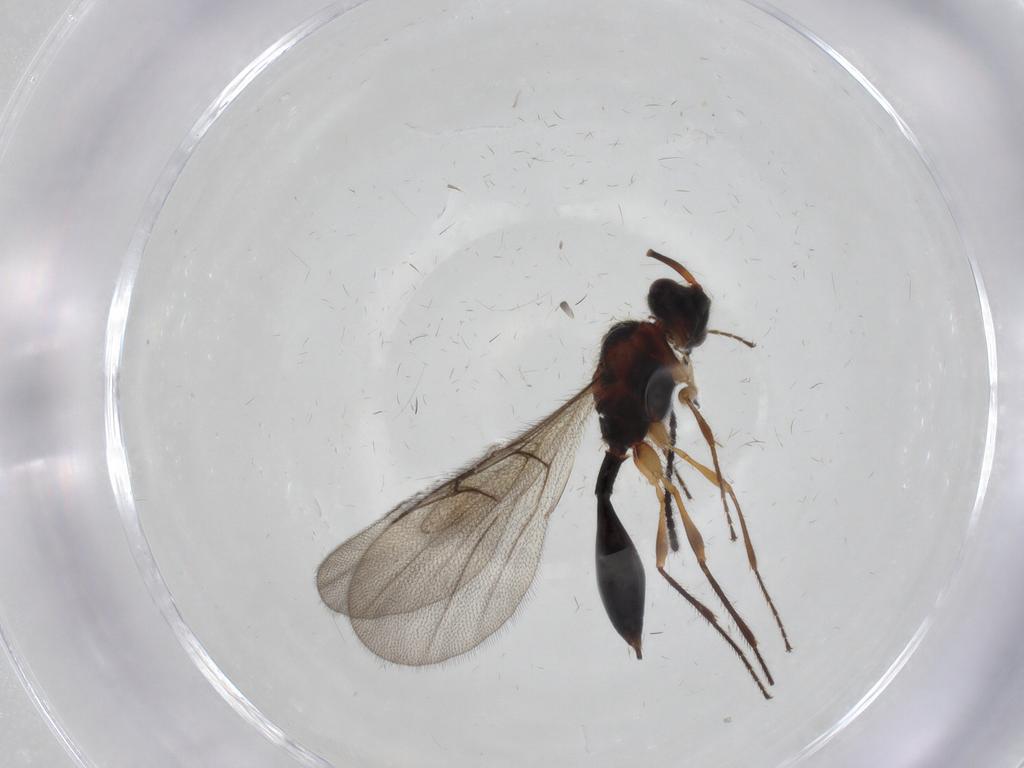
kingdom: Animalia
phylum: Arthropoda
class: Insecta
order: Hymenoptera
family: Diapriidae
